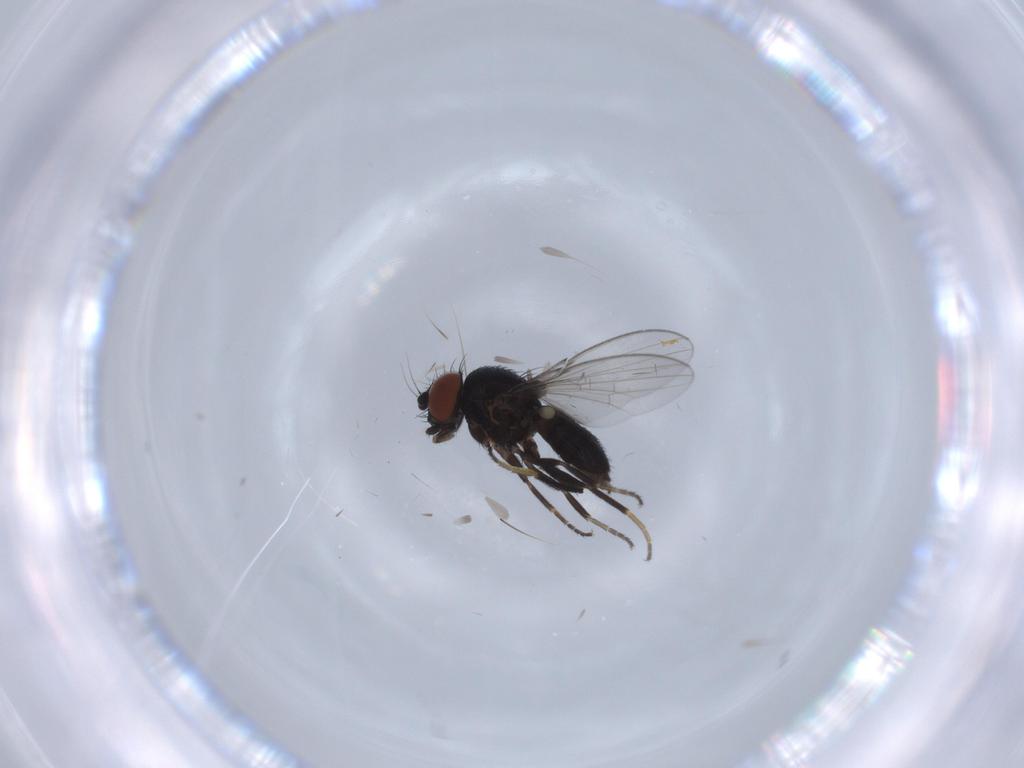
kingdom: Animalia
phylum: Arthropoda
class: Insecta
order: Diptera
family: Milichiidae
